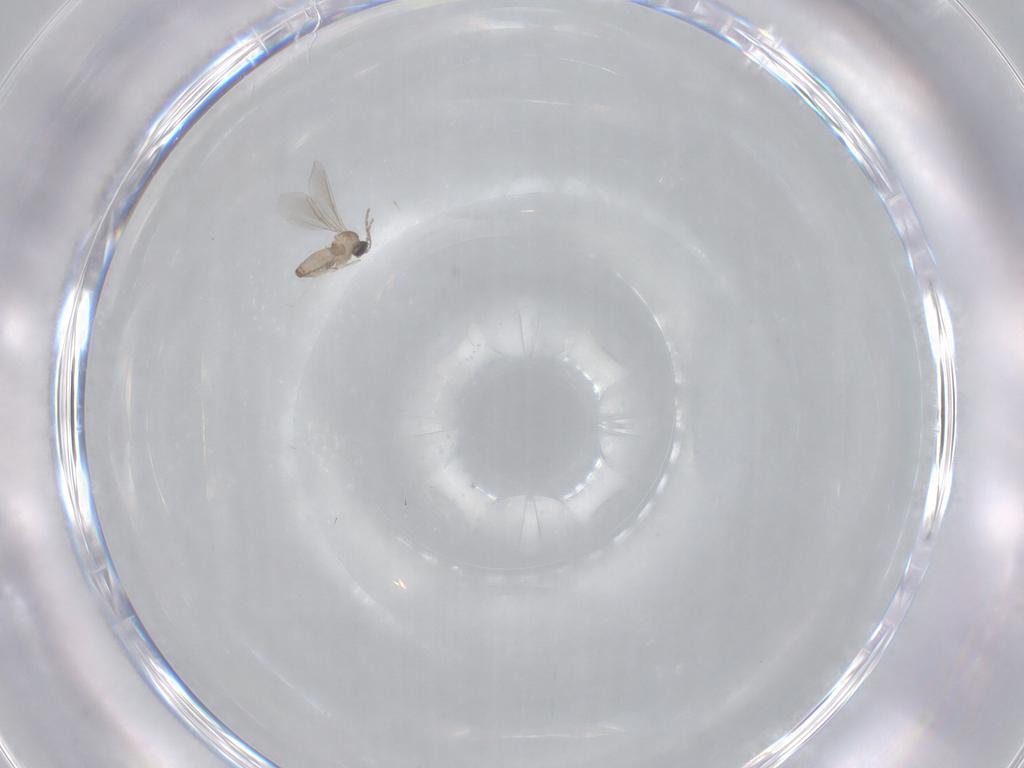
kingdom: Animalia
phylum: Arthropoda
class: Insecta
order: Diptera
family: Cecidomyiidae
